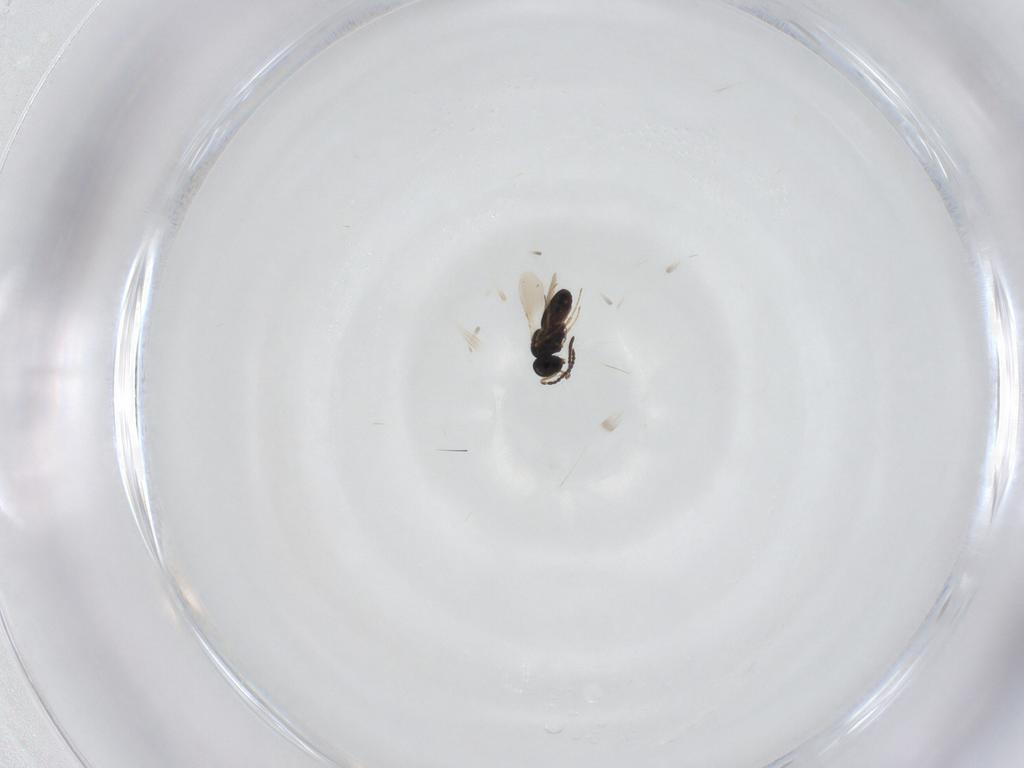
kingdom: Animalia
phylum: Arthropoda
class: Insecta
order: Hymenoptera
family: Scelionidae
